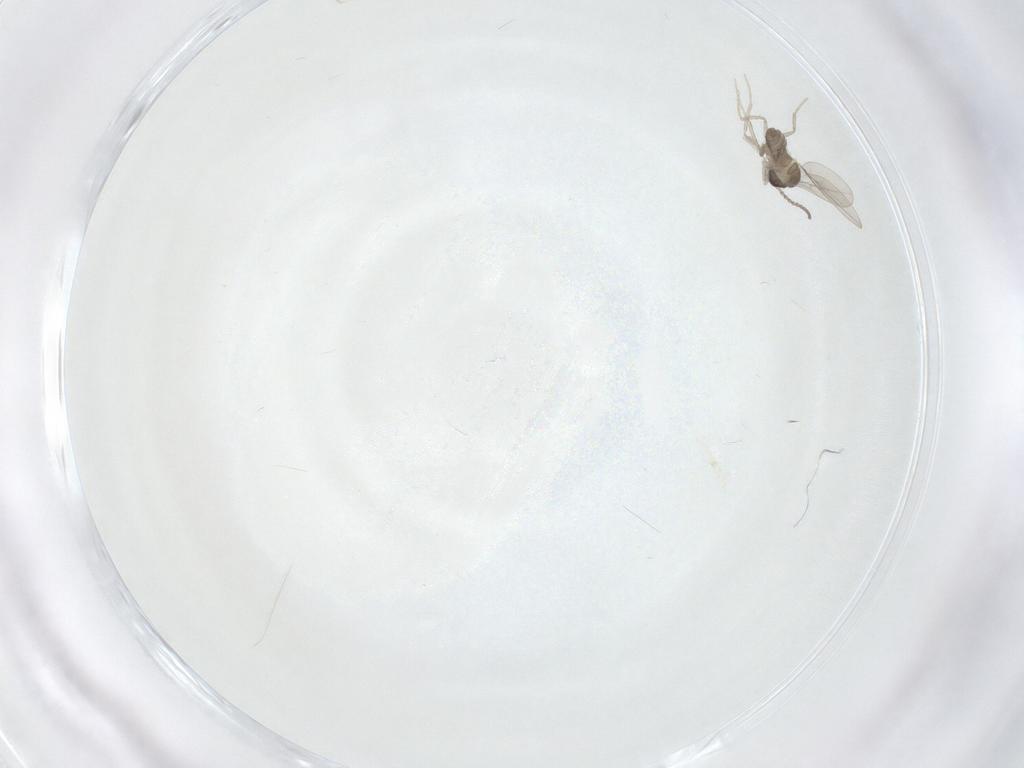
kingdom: Animalia
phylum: Arthropoda
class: Insecta
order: Diptera
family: Cecidomyiidae
